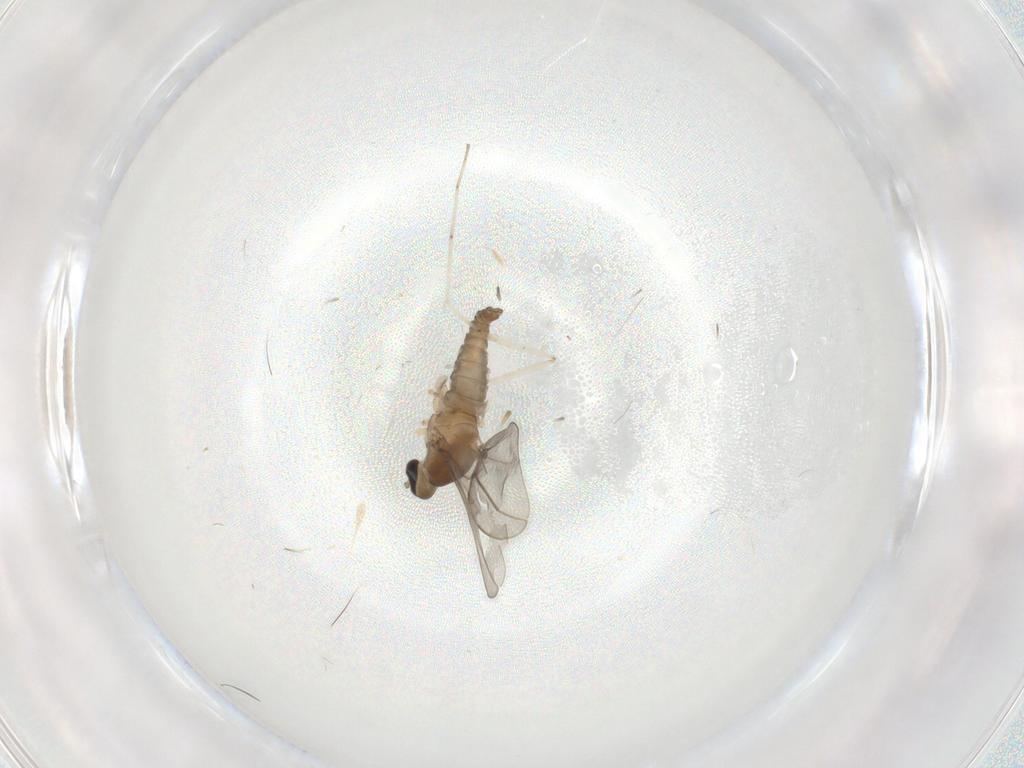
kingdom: Animalia
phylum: Arthropoda
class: Insecta
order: Diptera
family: Cecidomyiidae
